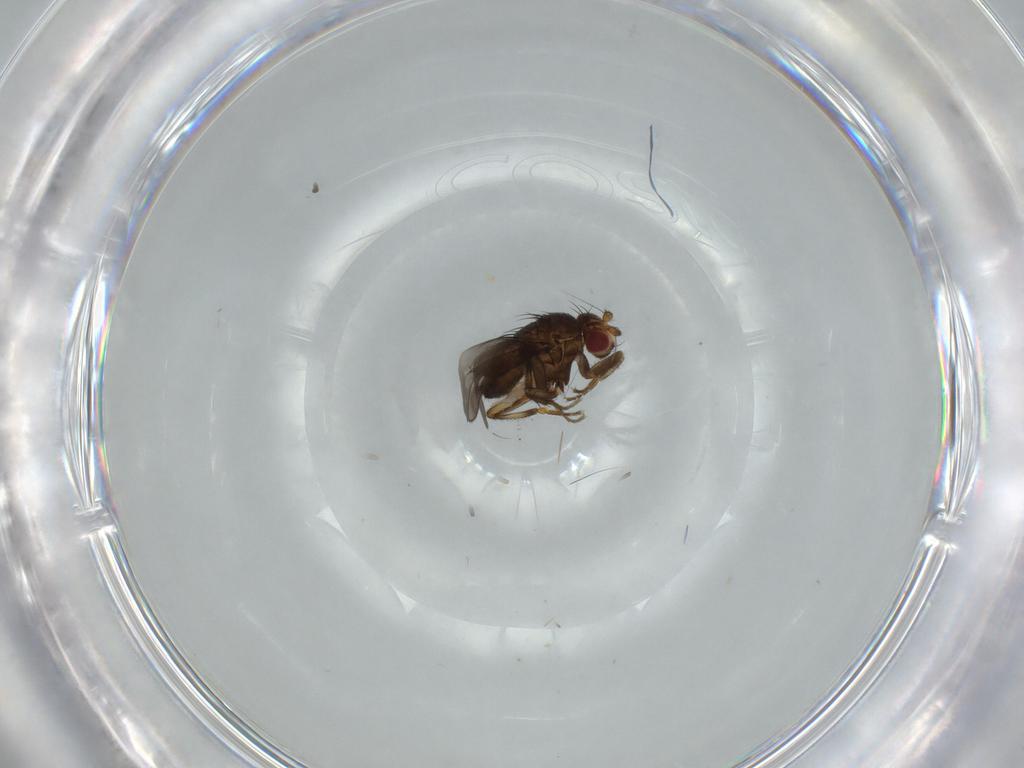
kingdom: Animalia
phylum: Arthropoda
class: Insecta
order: Diptera
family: Sphaeroceridae
